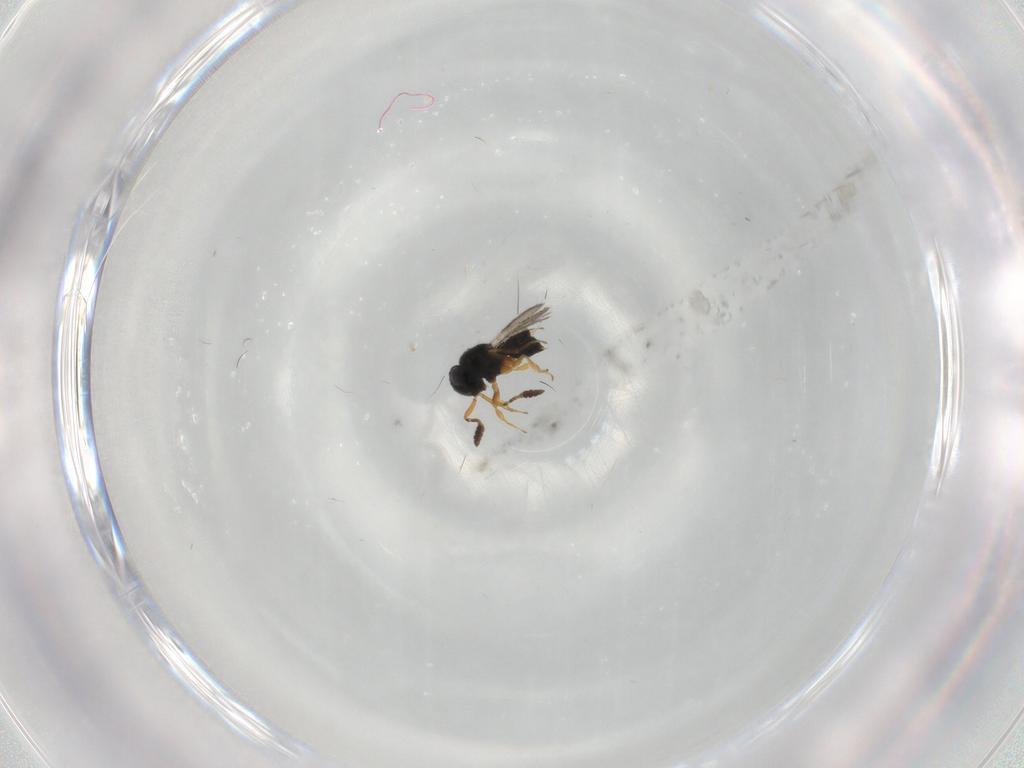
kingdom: Animalia
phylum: Arthropoda
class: Insecta
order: Hymenoptera
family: Scelionidae
